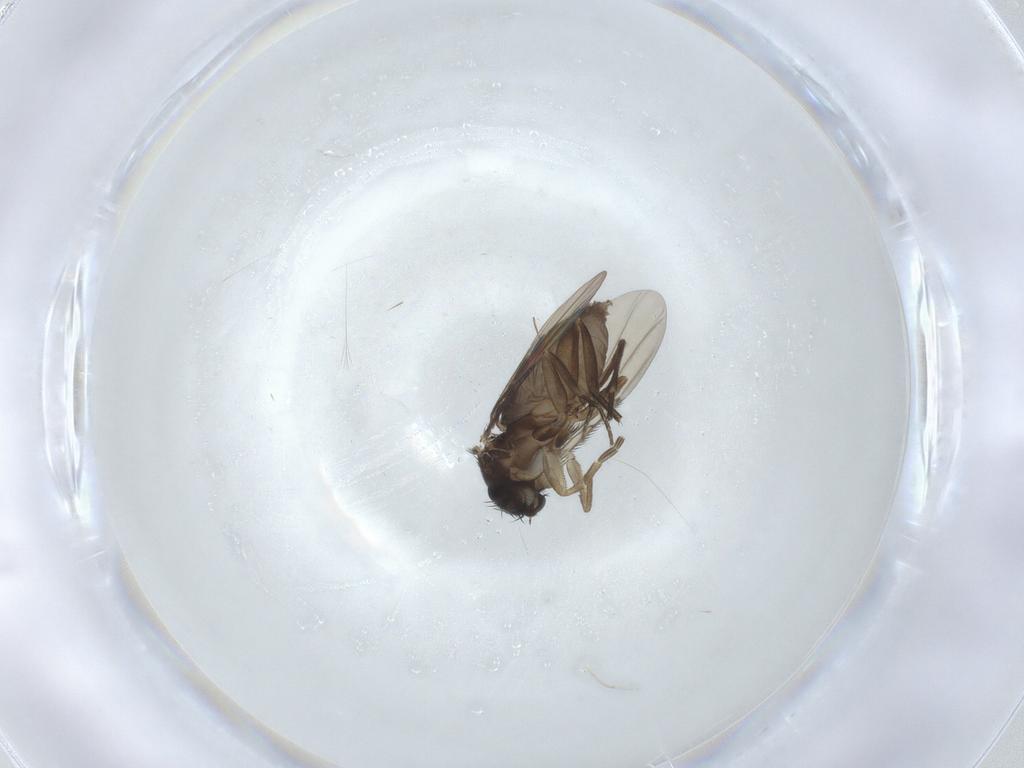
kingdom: Animalia
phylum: Arthropoda
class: Insecta
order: Diptera
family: Phoridae
